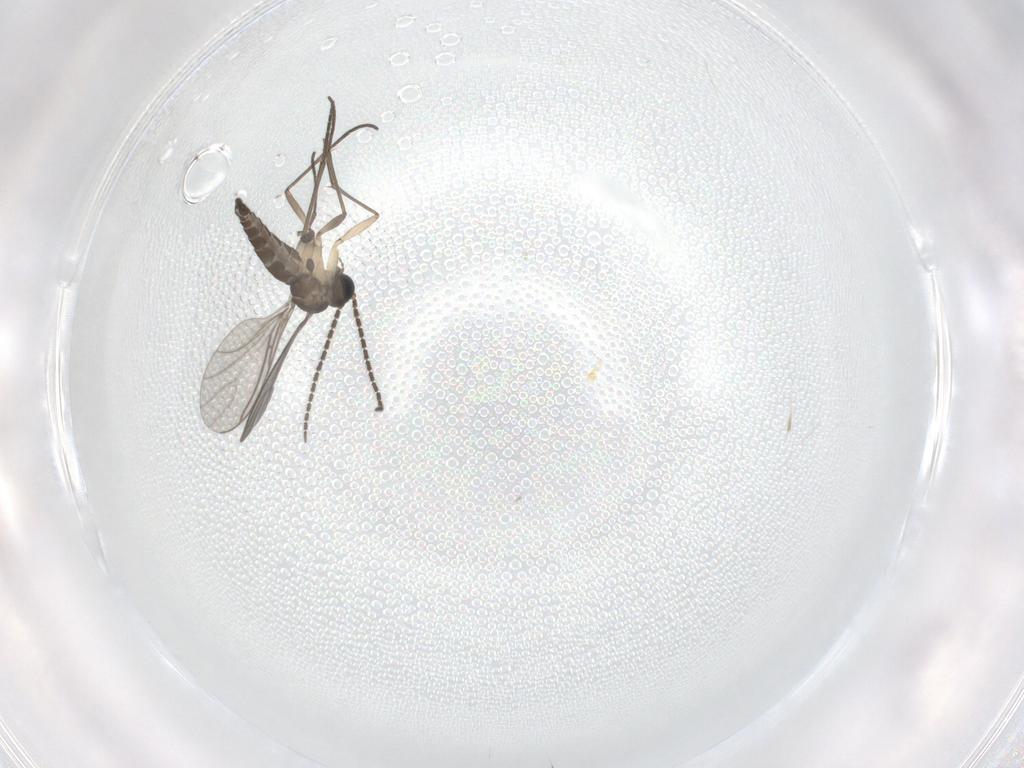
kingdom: Animalia
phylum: Arthropoda
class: Insecta
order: Diptera
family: Sciaridae
